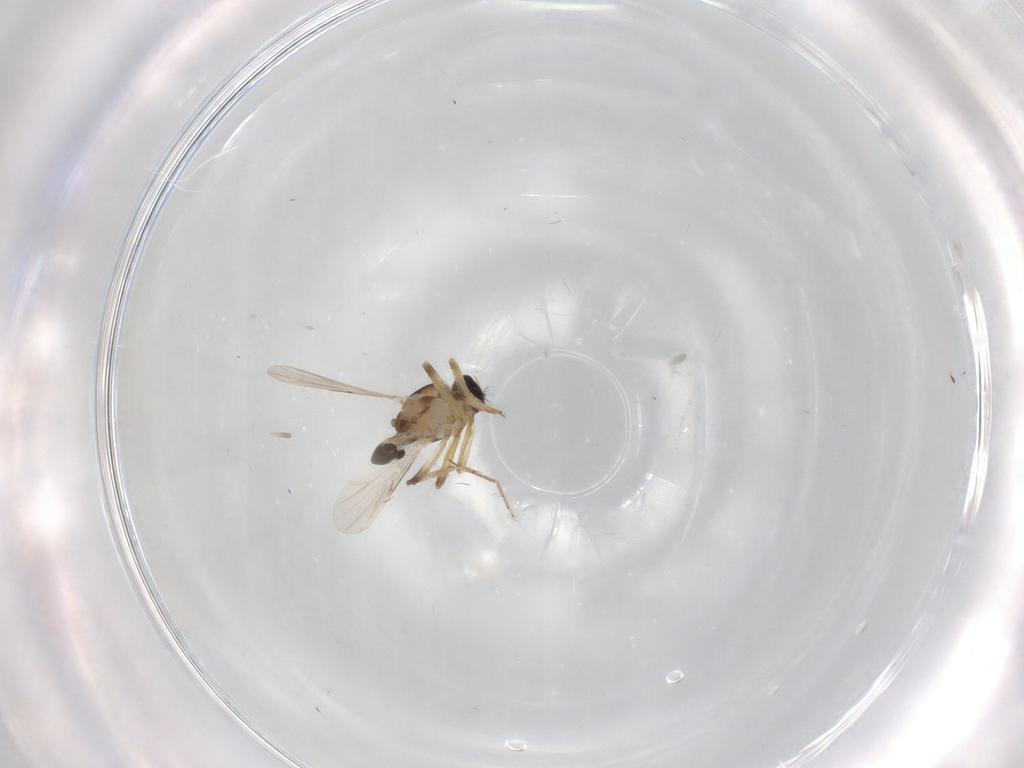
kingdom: Animalia
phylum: Arthropoda
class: Insecta
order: Diptera
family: Ceratopogonidae
